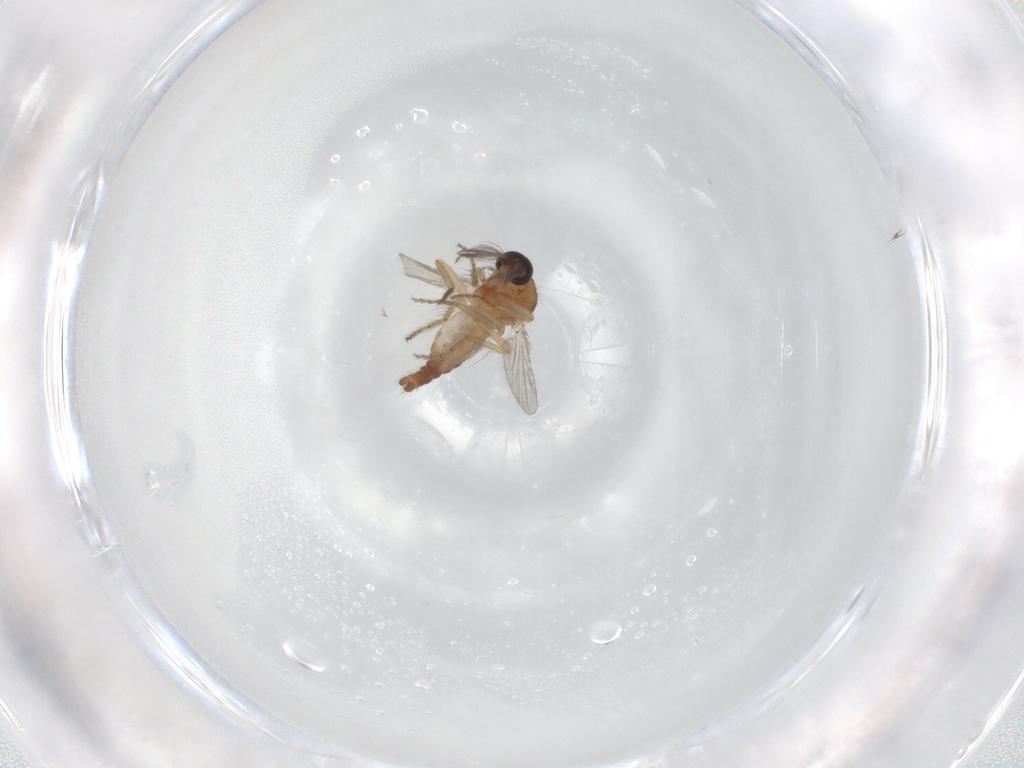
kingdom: Animalia
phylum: Arthropoda
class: Insecta
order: Diptera
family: Ceratopogonidae
